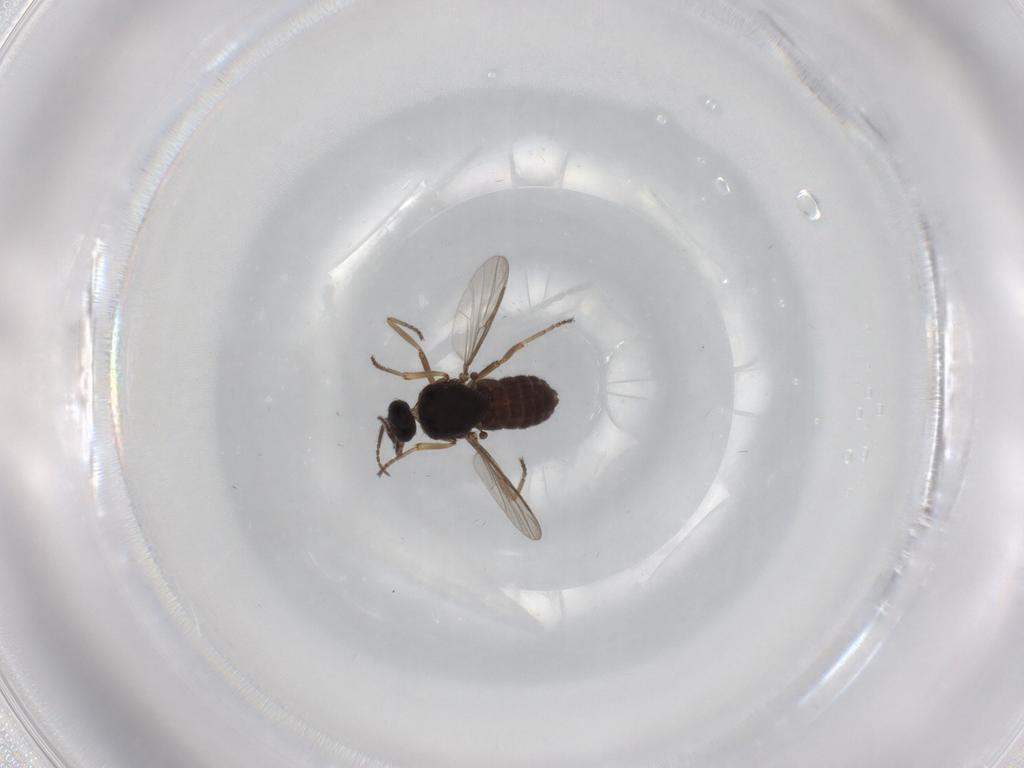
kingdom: Animalia
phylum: Arthropoda
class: Insecta
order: Diptera
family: Ceratopogonidae
